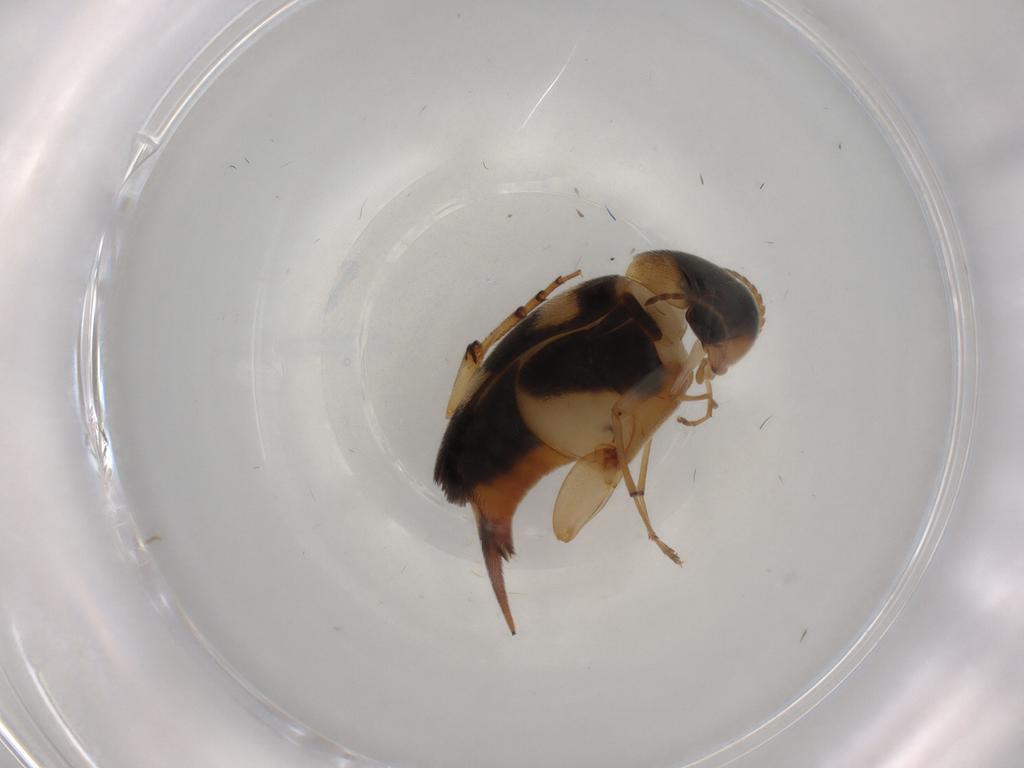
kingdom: Animalia
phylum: Arthropoda
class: Insecta
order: Coleoptera
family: Mordellidae
